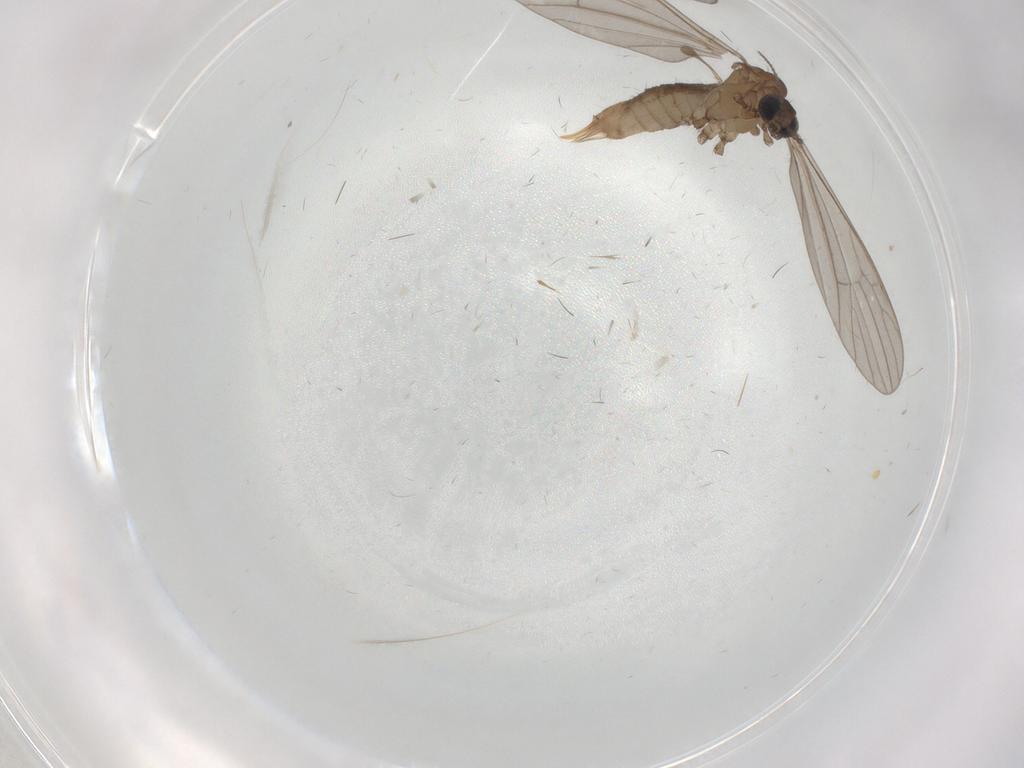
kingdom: Animalia
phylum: Arthropoda
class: Insecta
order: Diptera
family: Limoniidae
